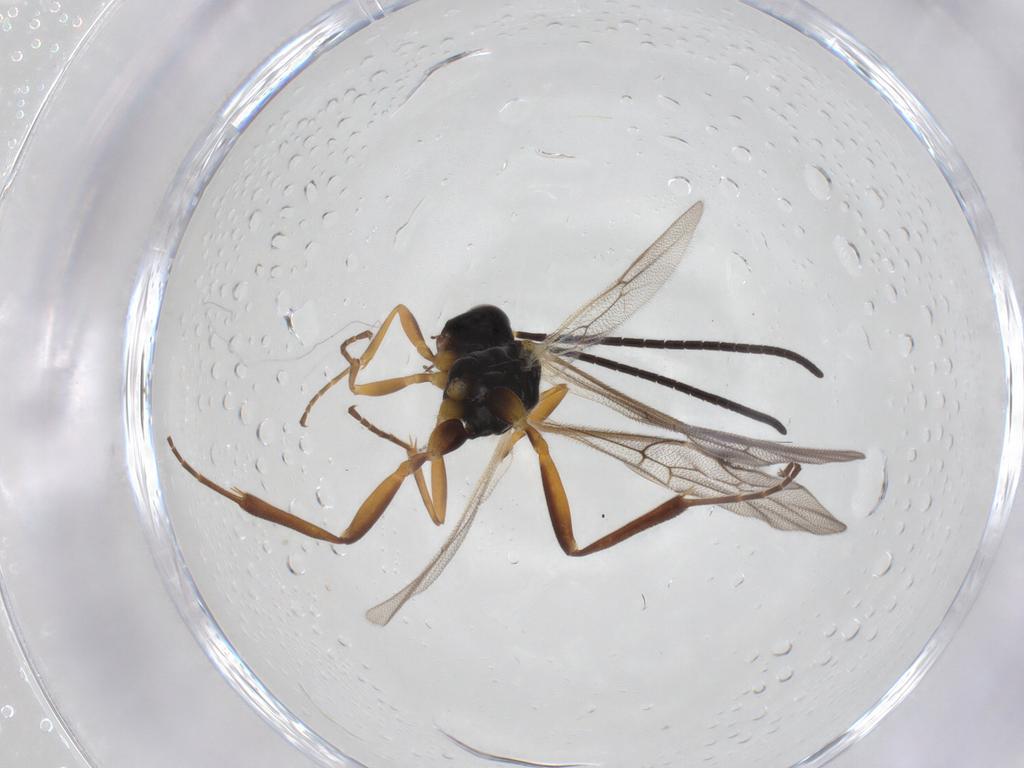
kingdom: Animalia
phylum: Arthropoda
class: Insecta
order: Hymenoptera
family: Ichneumonidae
